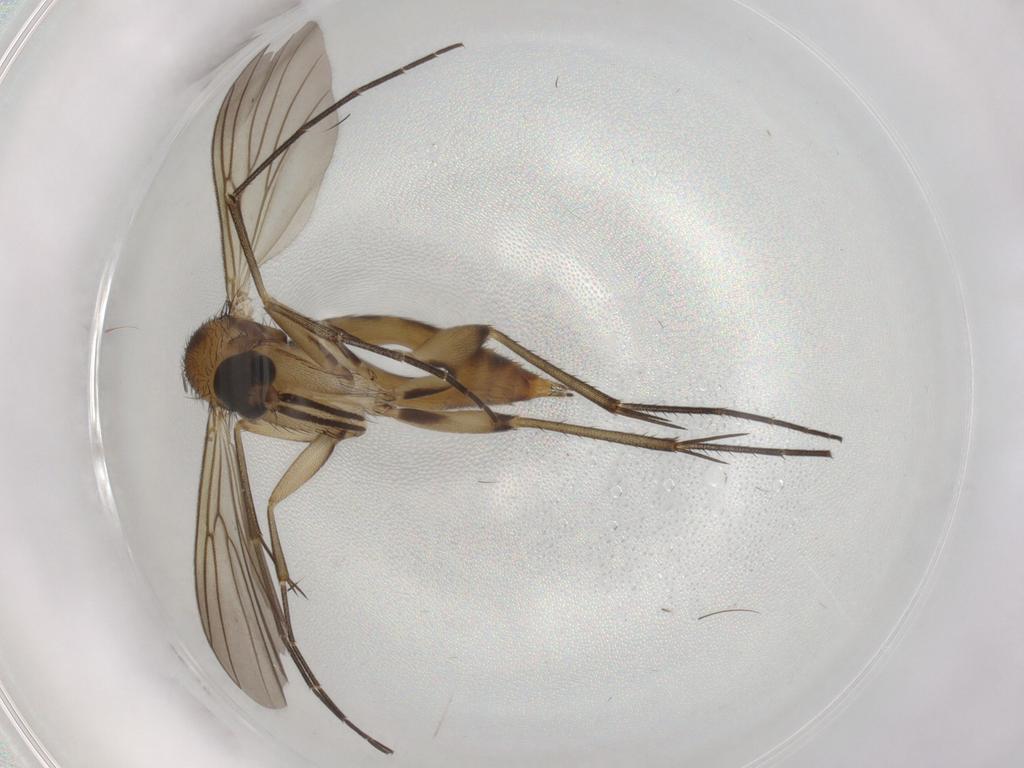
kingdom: Animalia
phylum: Arthropoda
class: Insecta
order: Diptera
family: Mycetophilidae
